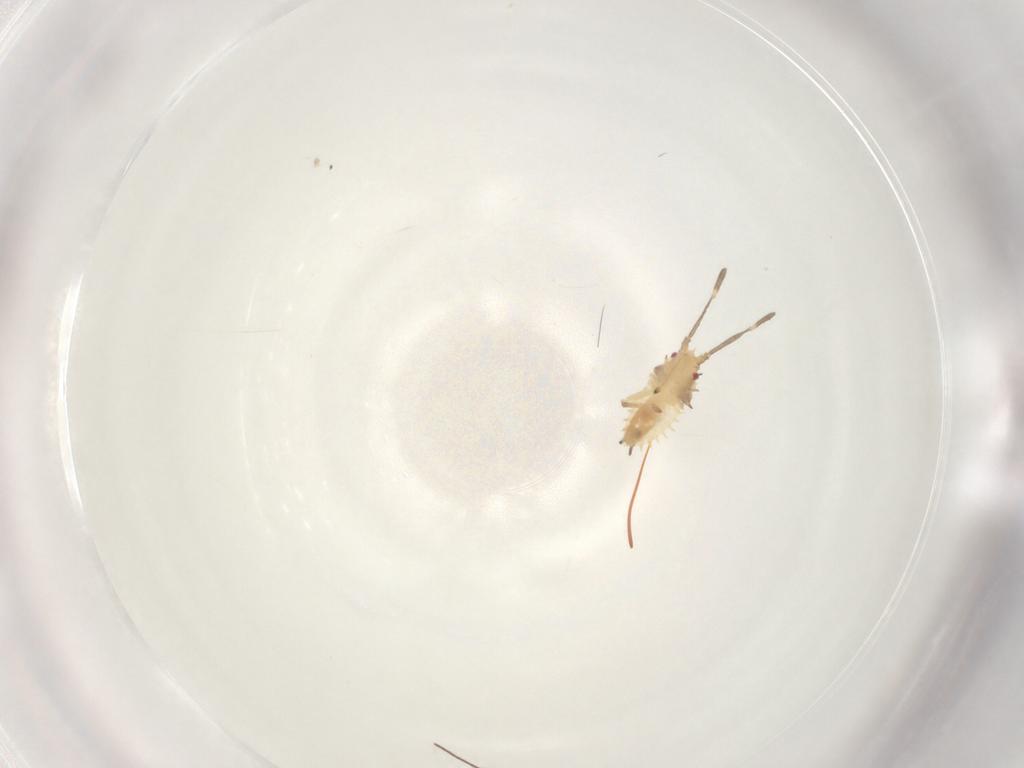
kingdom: Animalia
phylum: Arthropoda
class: Insecta
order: Hemiptera
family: Tingidae
